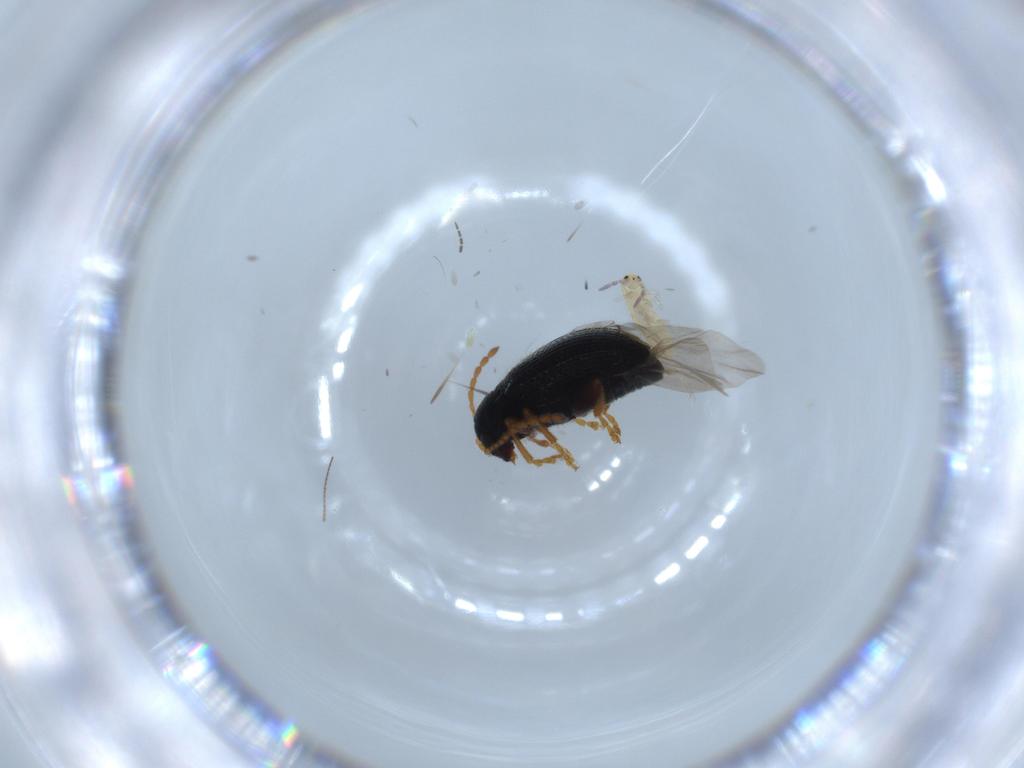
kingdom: Animalia
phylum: Arthropoda
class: Insecta
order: Coleoptera
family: Chrysomelidae
